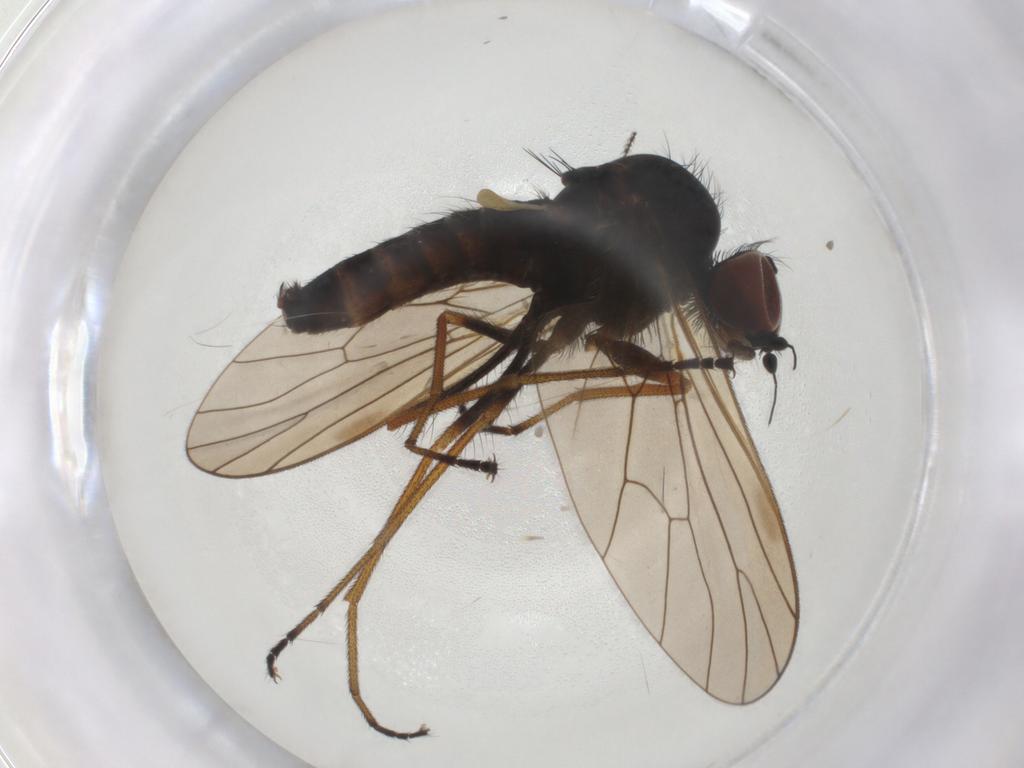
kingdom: Animalia
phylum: Arthropoda
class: Insecta
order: Diptera
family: Brachystomatidae
